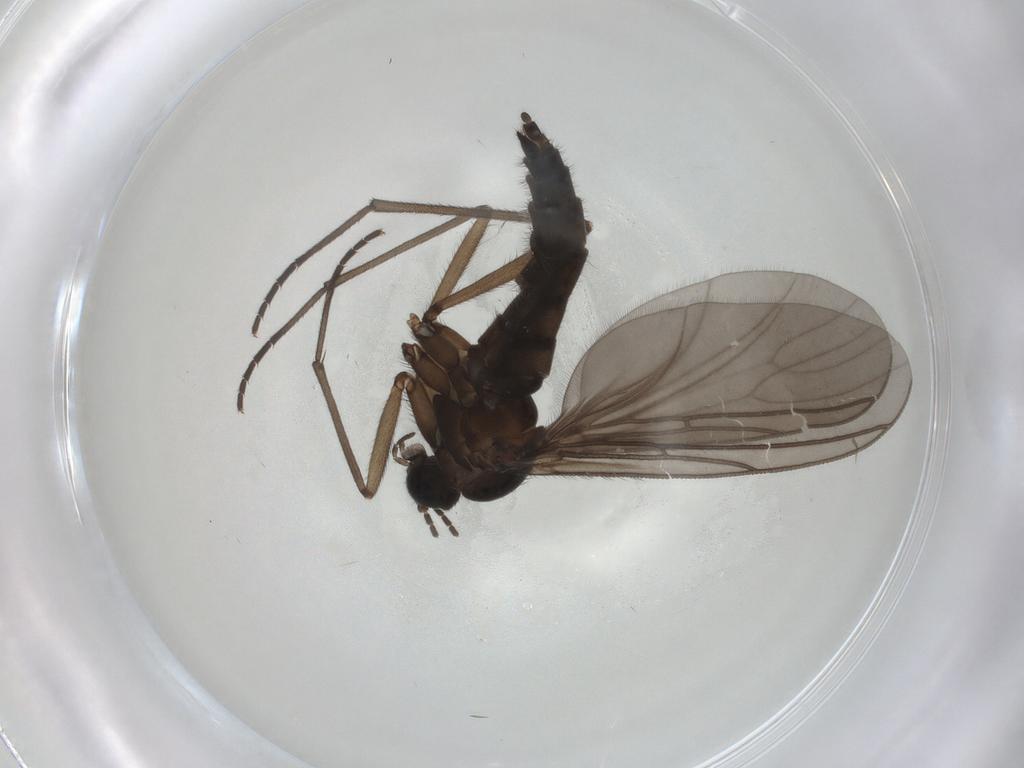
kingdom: Animalia
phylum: Arthropoda
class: Insecta
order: Diptera
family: Sciaridae
